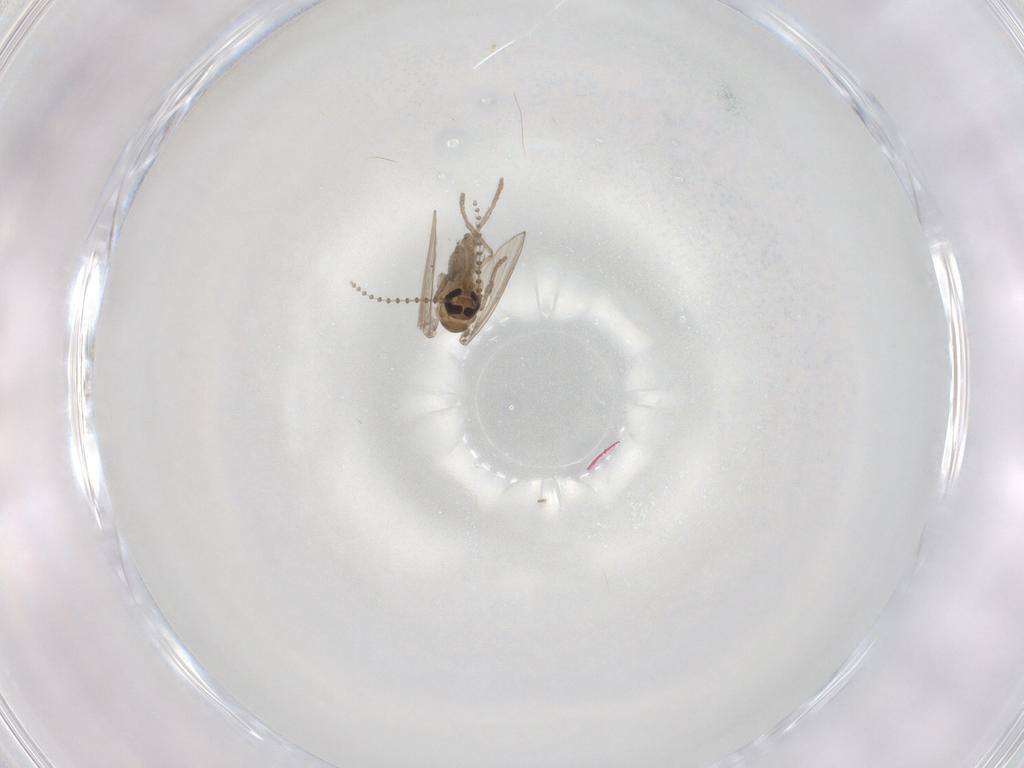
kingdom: Animalia
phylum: Arthropoda
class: Insecta
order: Diptera
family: Psychodidae
